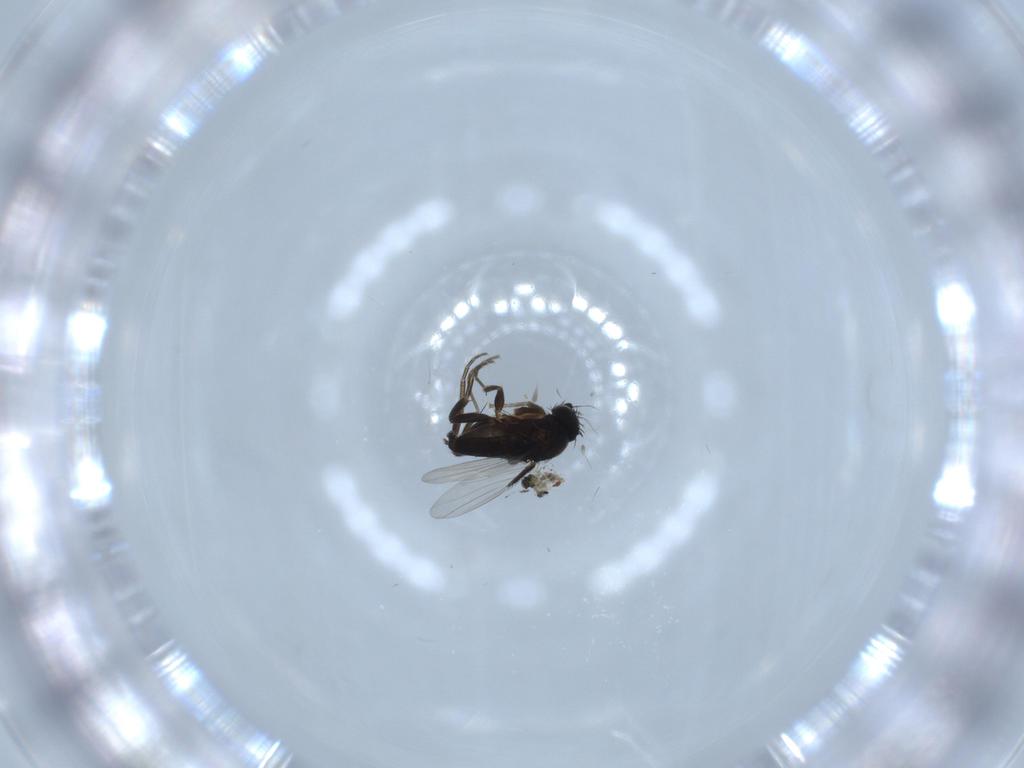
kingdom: Animalia
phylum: Arthropoda
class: Insecta
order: Diptera
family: Phoridae
